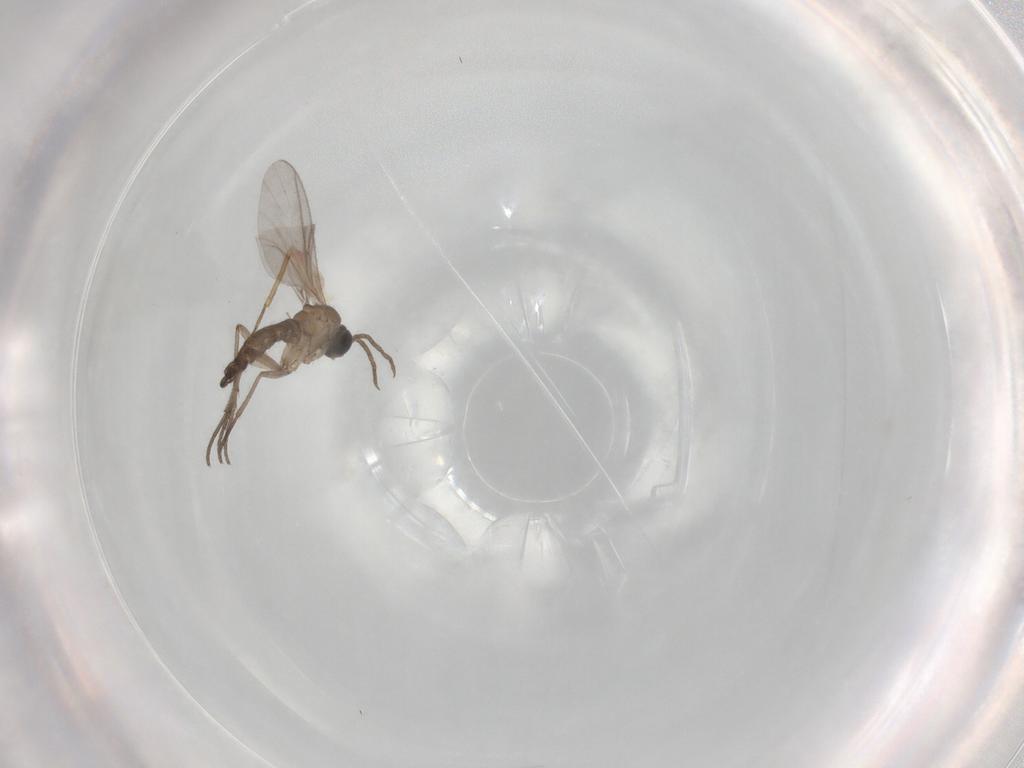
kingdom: Animalia
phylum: Arthropoda
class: Insecta
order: Diptera
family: Sciaridae
